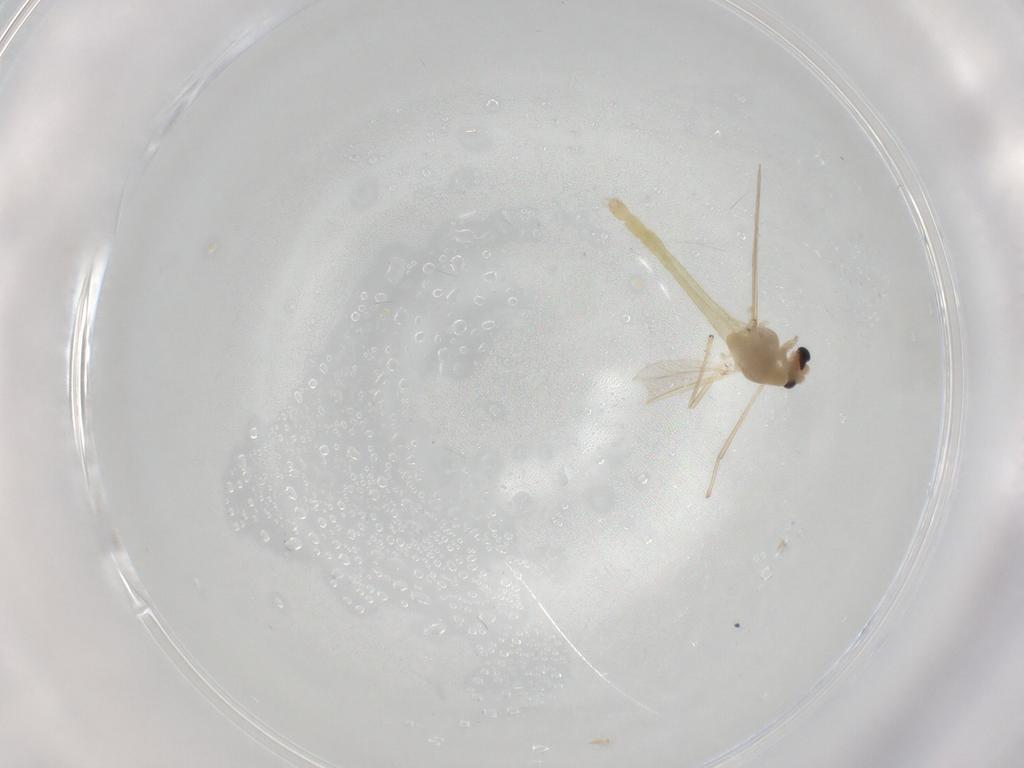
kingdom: Animalia
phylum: Arthropoda
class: Insecta
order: Diptera
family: Chironomidae
